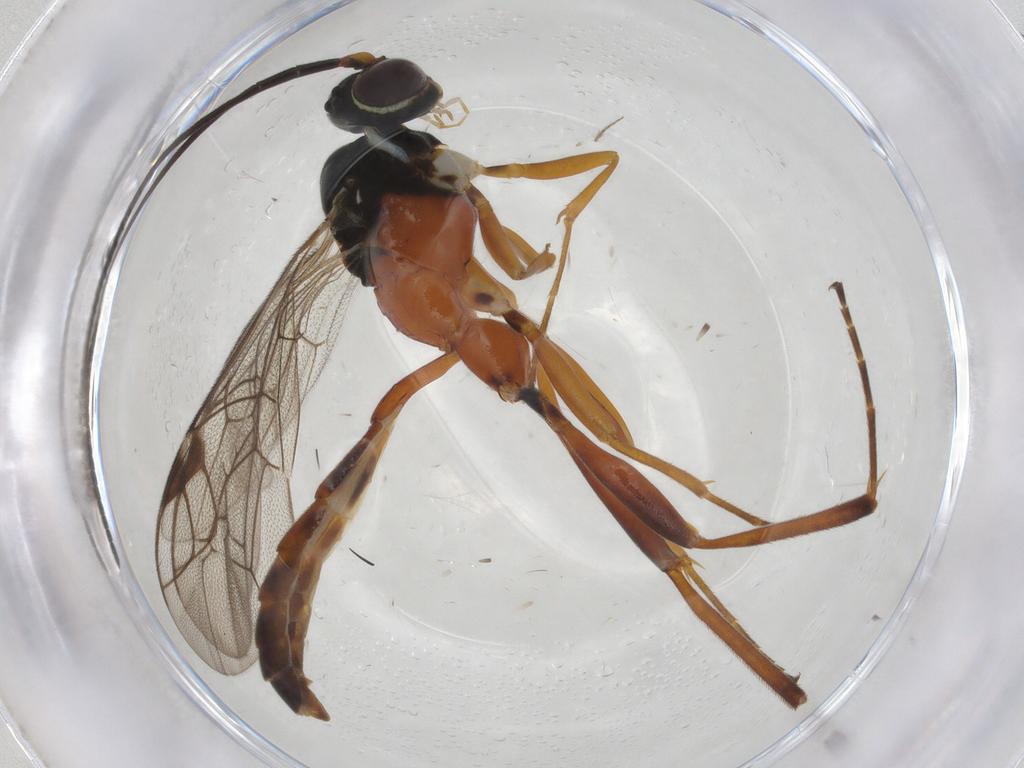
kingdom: Animalia
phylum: Arthropoda
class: Insecta
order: Hymenoptera
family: Ichneumonidae
